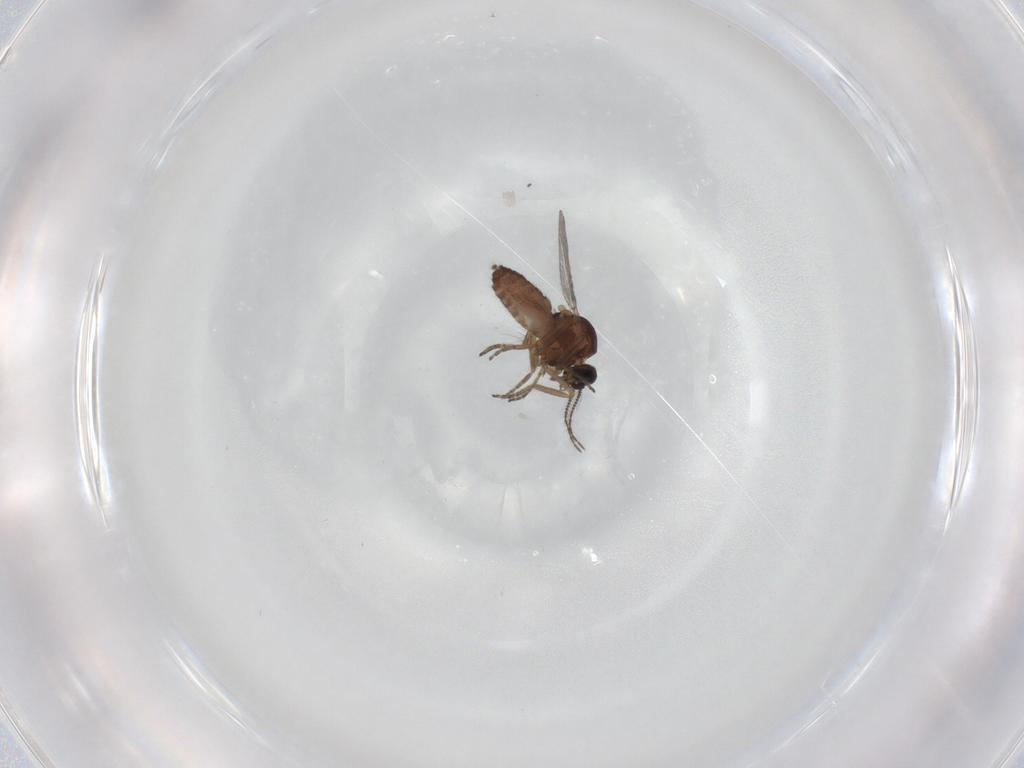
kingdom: Animalia
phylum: Arthropoda
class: Insecta
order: Diptera
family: Ceratopogonidae
